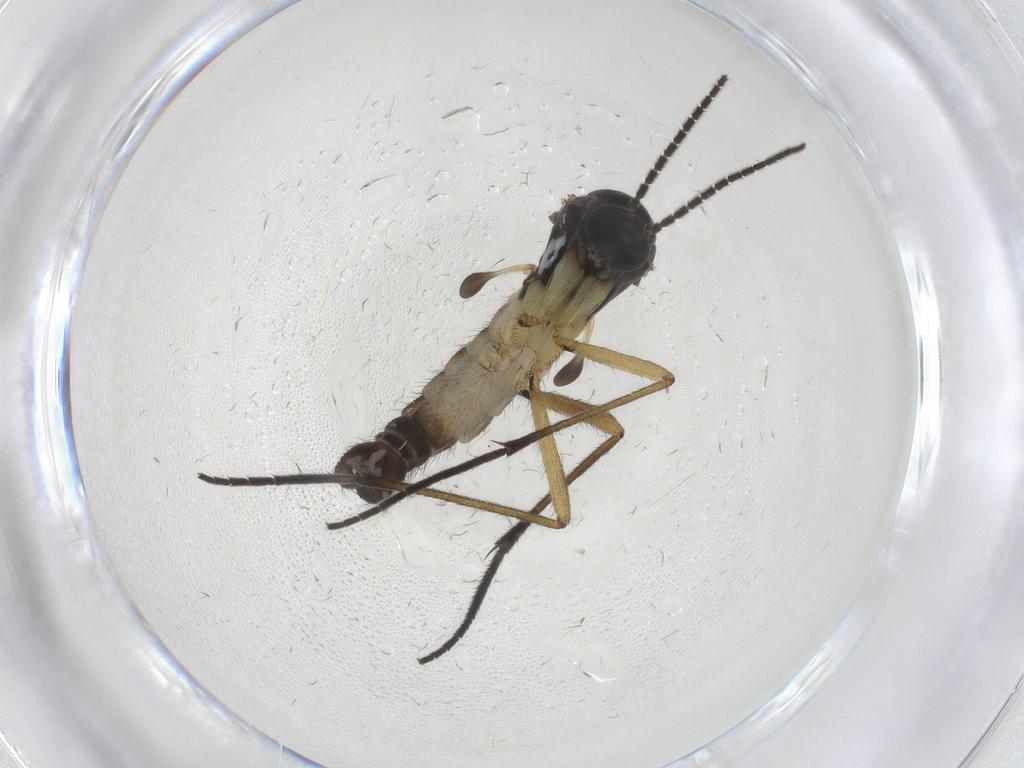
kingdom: Animalia
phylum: Arthropoda
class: Insecta
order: Diptera
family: Sciaridae
